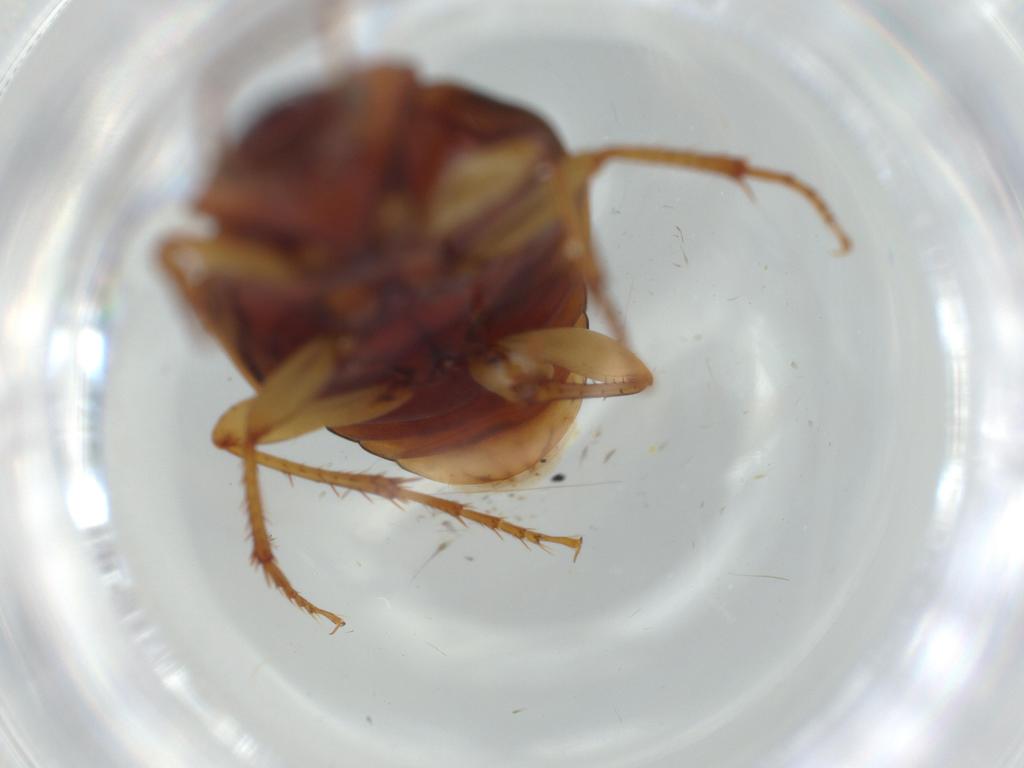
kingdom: Animalia
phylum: Arthropoda
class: Insecta
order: Coleoptera
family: Carabidae
